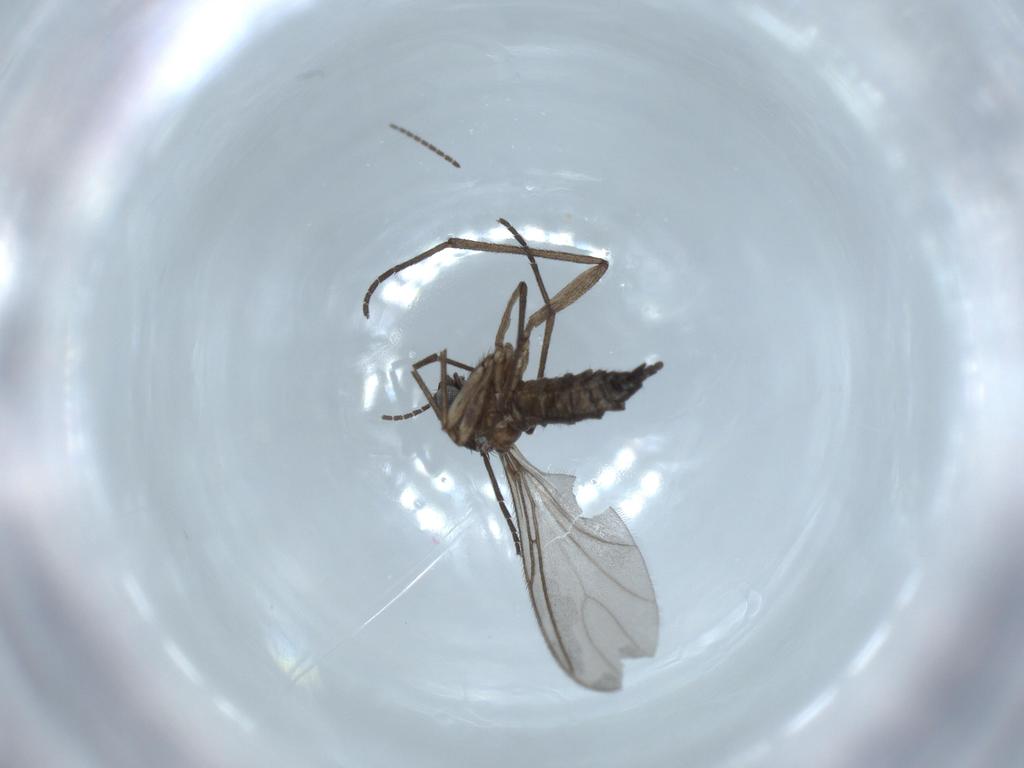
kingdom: Animalia
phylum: Arthropoda
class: Insecta
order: Diptera
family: Sciaridae
